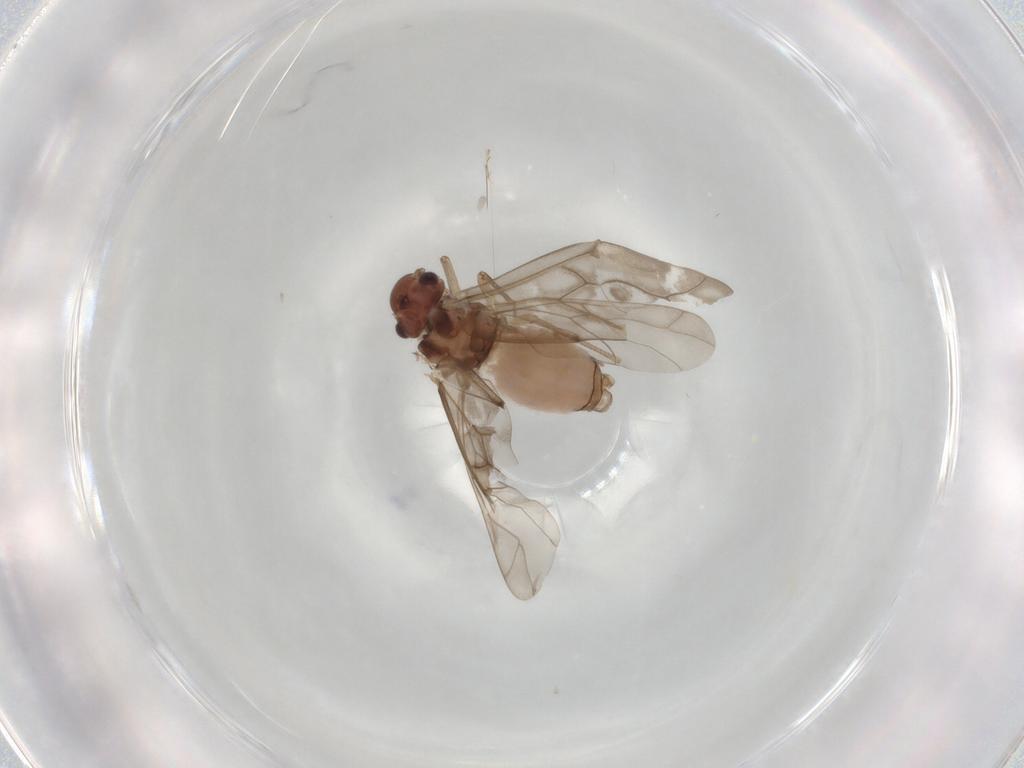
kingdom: Animalia
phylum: Arthropoda
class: Insecta
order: Psocodea
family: Peripsocidae
